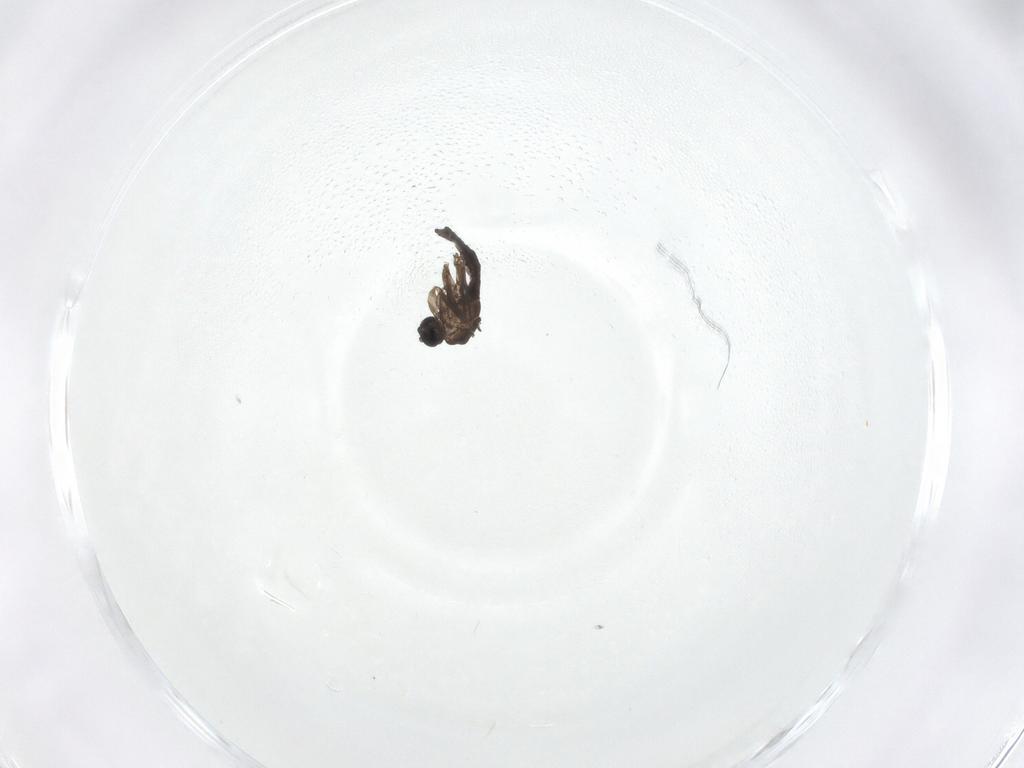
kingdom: Animalia
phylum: Arthropoda
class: Insecta
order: Diptera
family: Sciaridae
